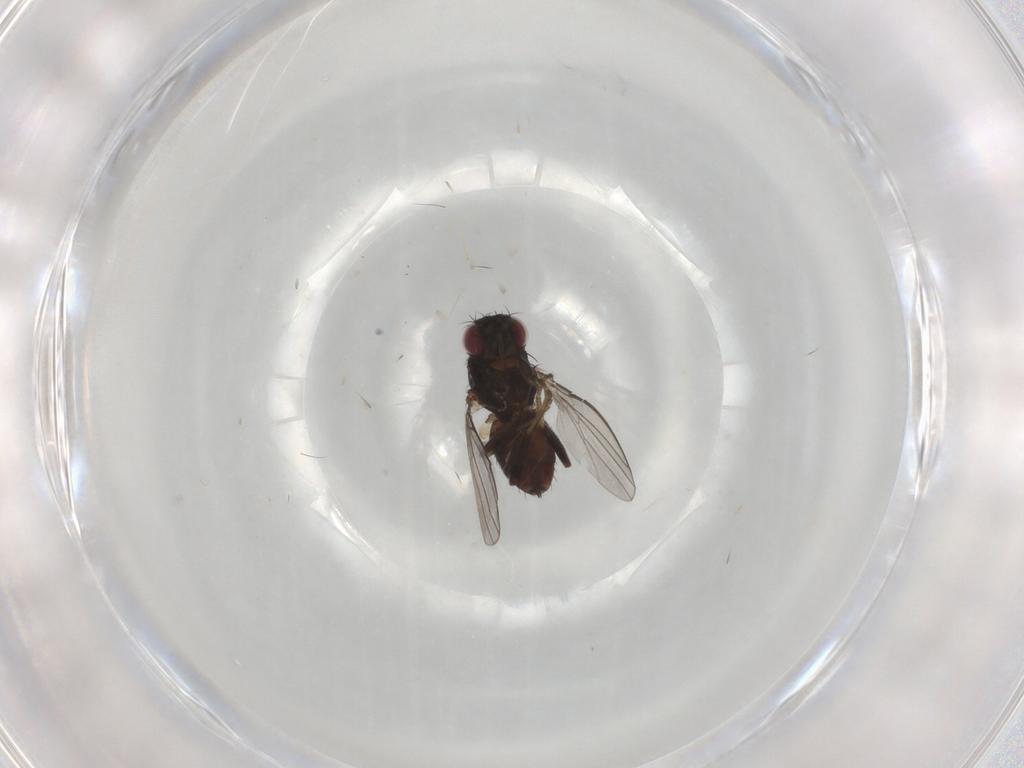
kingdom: Animalia
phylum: Arthropoda
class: Insecta
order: Diptera
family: Milichiidae
